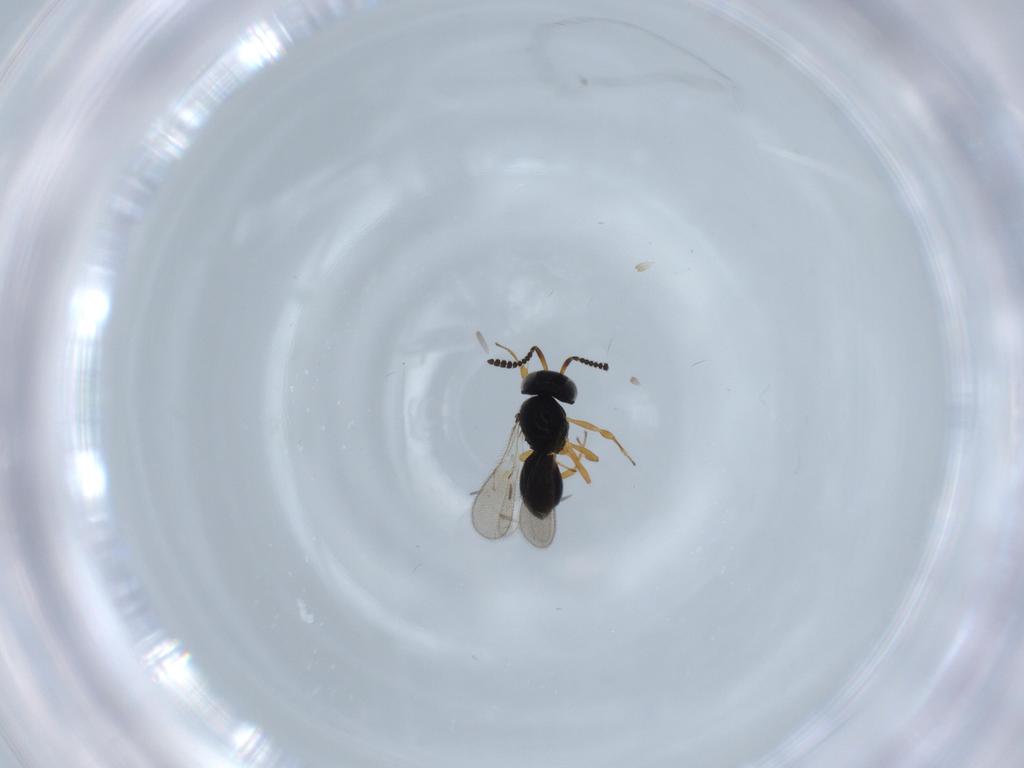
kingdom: Animalia
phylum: Arthropoda
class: Insecta
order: Hymenoptera
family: Scelionidae
